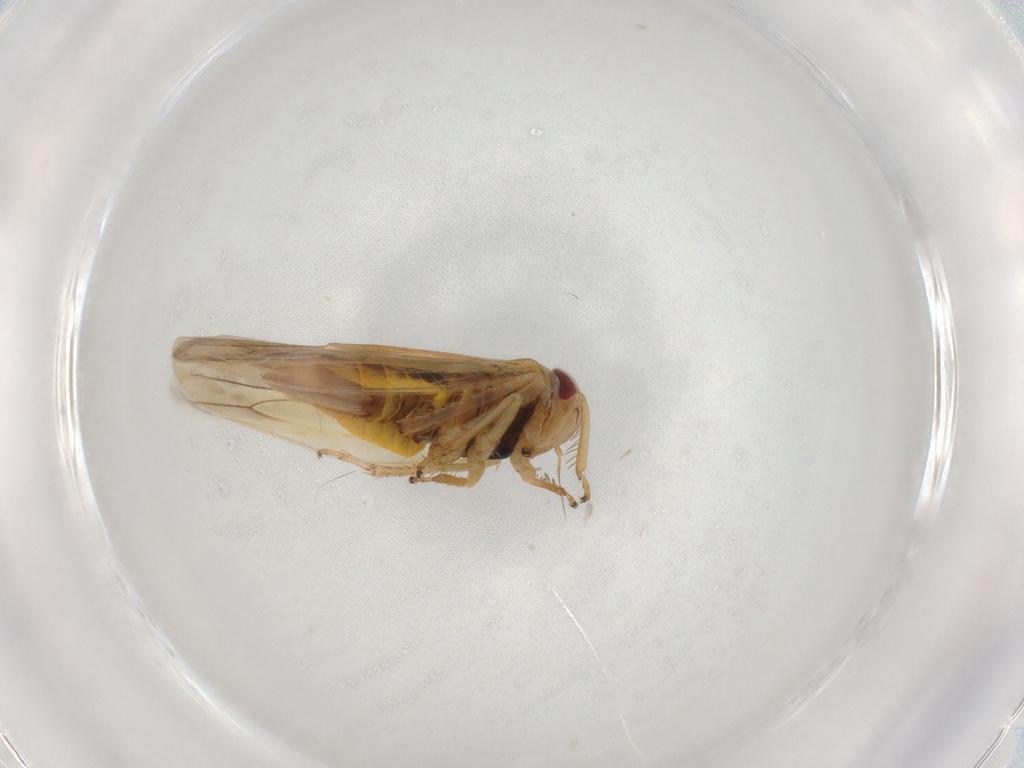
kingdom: Animalia
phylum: Arthropoda
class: Insecta
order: Hemiptera
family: Cicadellidae
